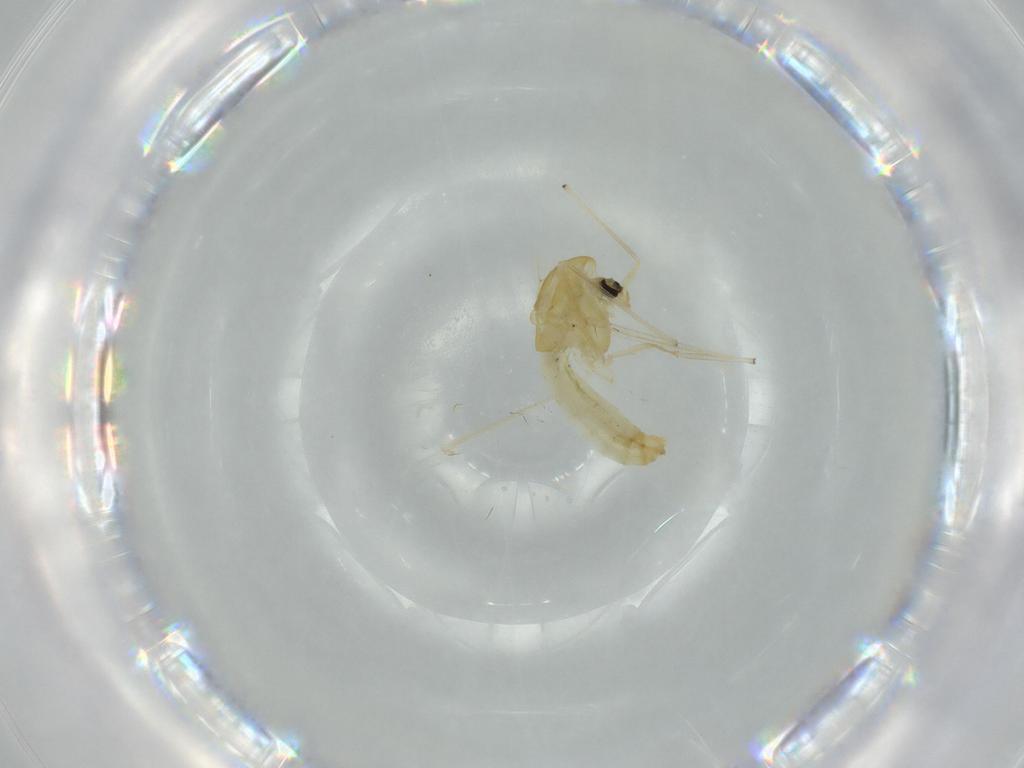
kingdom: Animalia
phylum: Arthropoda
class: Insecta
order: Diptera
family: Chironomidae
